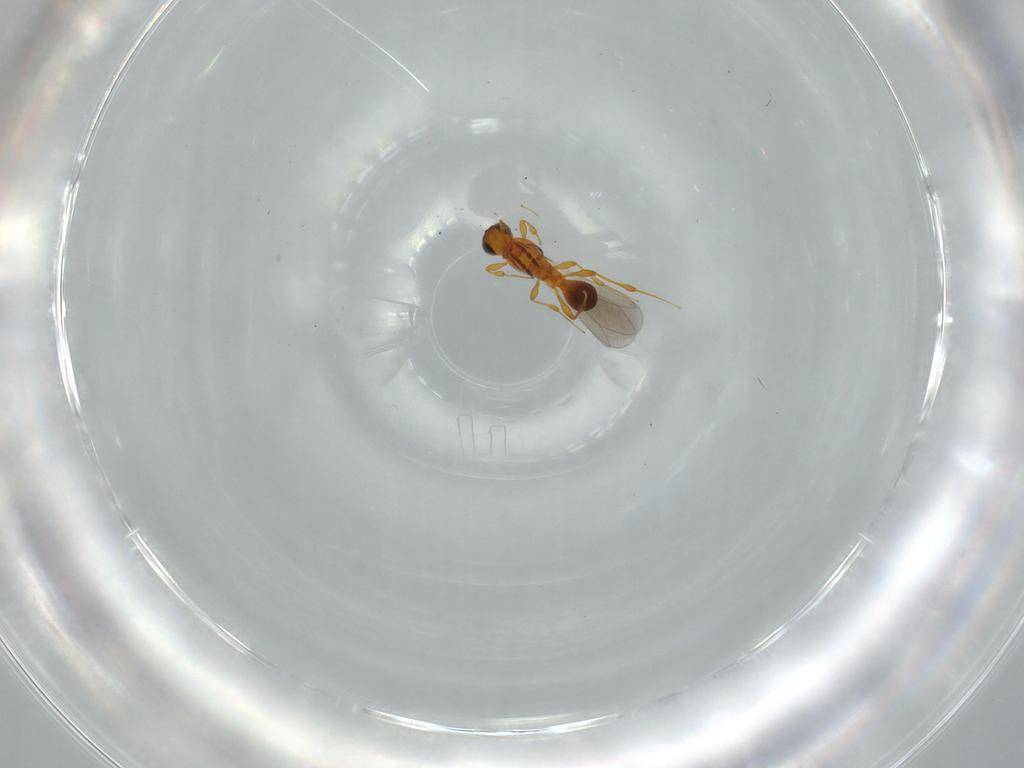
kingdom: Animalia
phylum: Arthropoda
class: Insecta
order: Hymenoptera
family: Platygastridae
